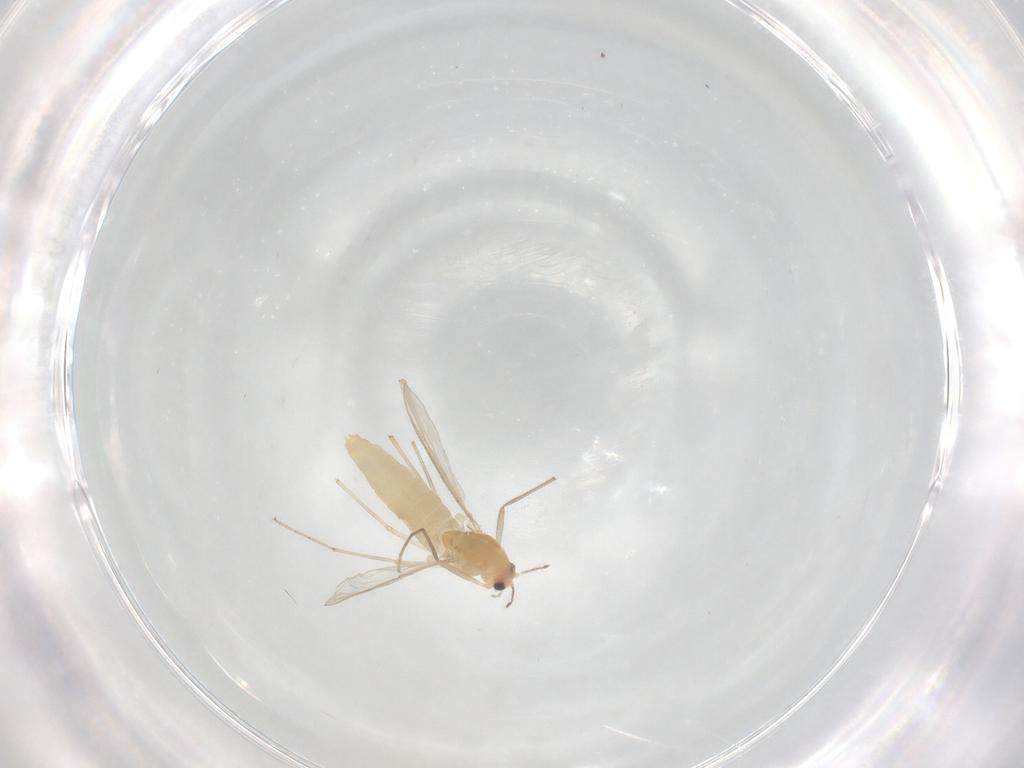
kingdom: Animalia
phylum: Arthropoda
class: Insecta
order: Diptera
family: Chironomidae
